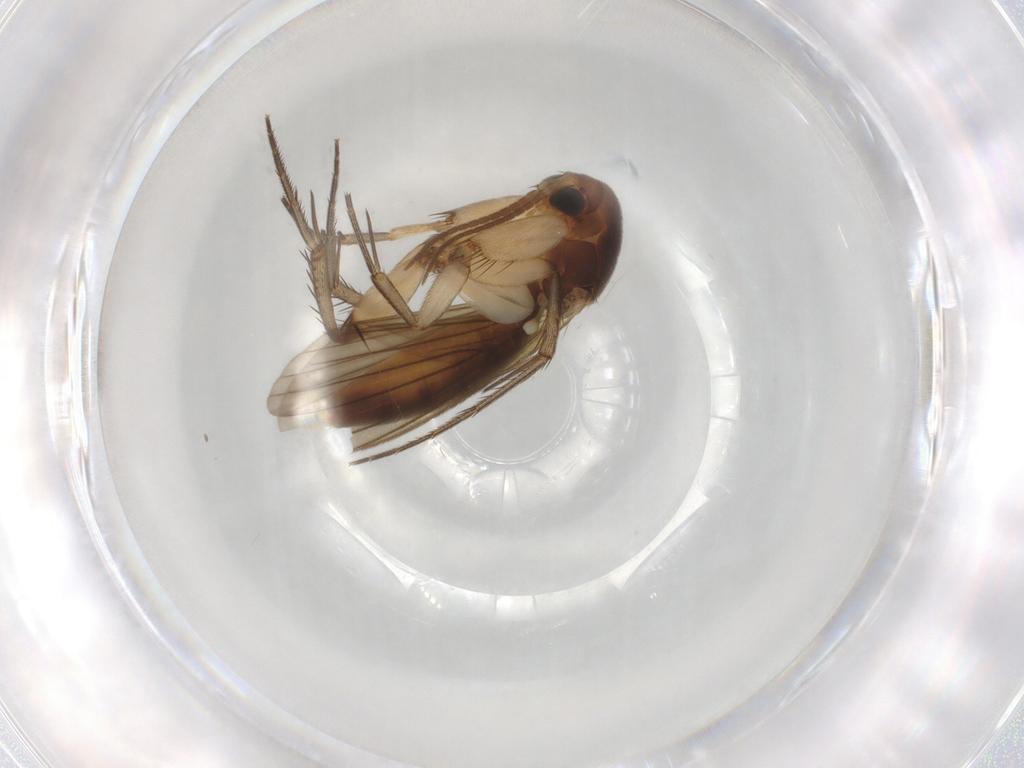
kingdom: Animalia
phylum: Arthropoda
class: Insecta
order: Diptera
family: Mycetophilidae
